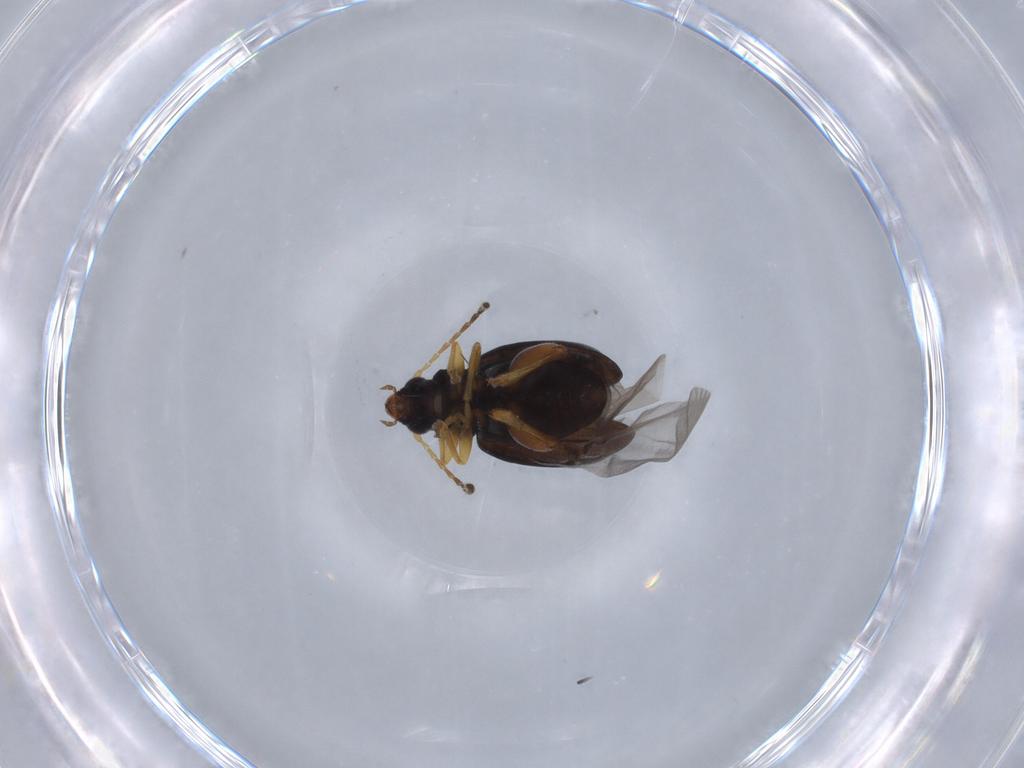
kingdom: Animalia
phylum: Arthropoda
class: Insecta
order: Coleoptera
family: Chrysomelidae
